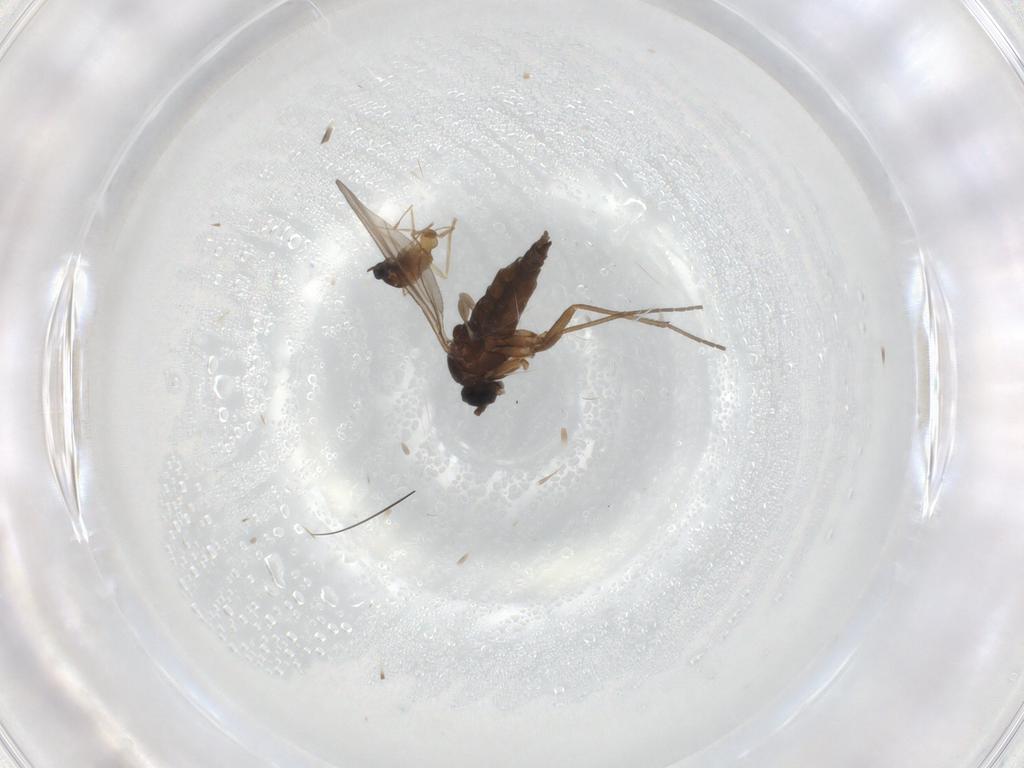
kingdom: Animalia
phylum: Arthropoda
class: Insecta
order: Diptera
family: Sciaridae
